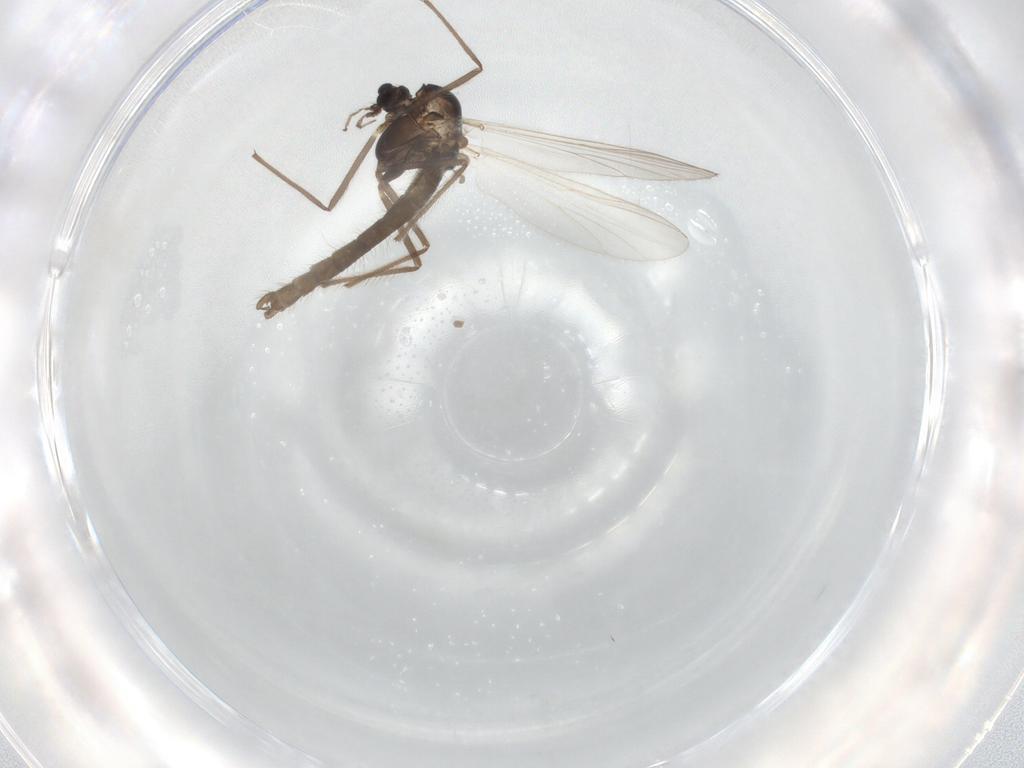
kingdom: Animalia
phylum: Arthropoda
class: Insecta
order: Diptera
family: Chironomidae
